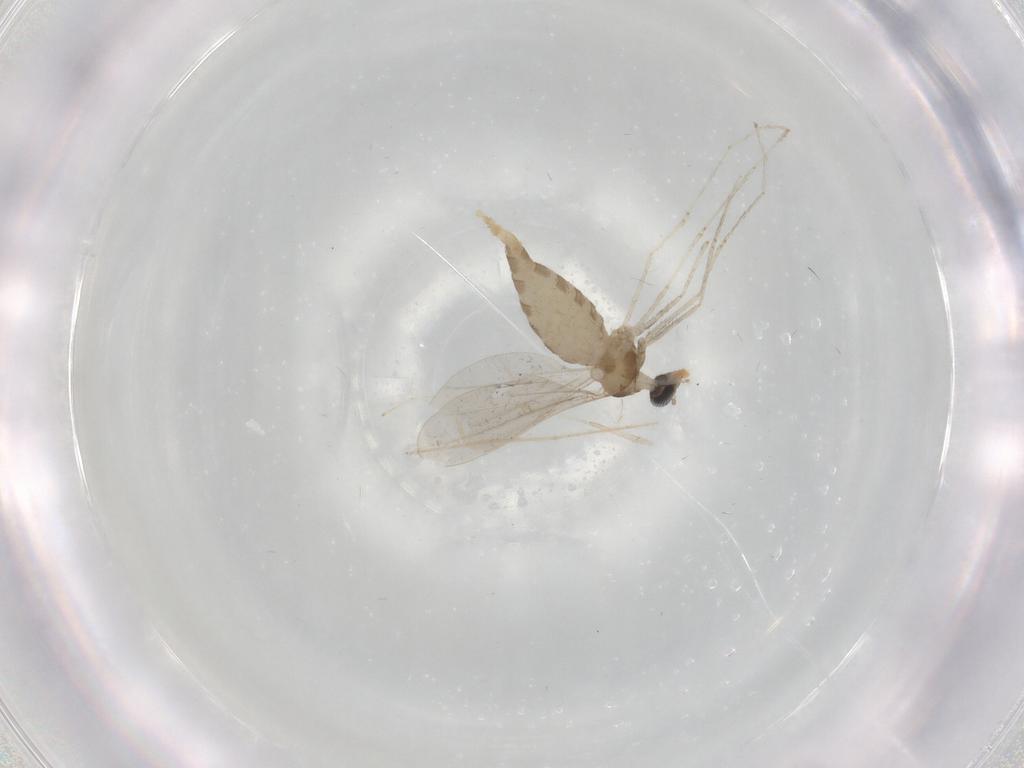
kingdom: Animalia
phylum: Arthropoda
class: Insecta
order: Diptera
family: Cecidomyiidae
